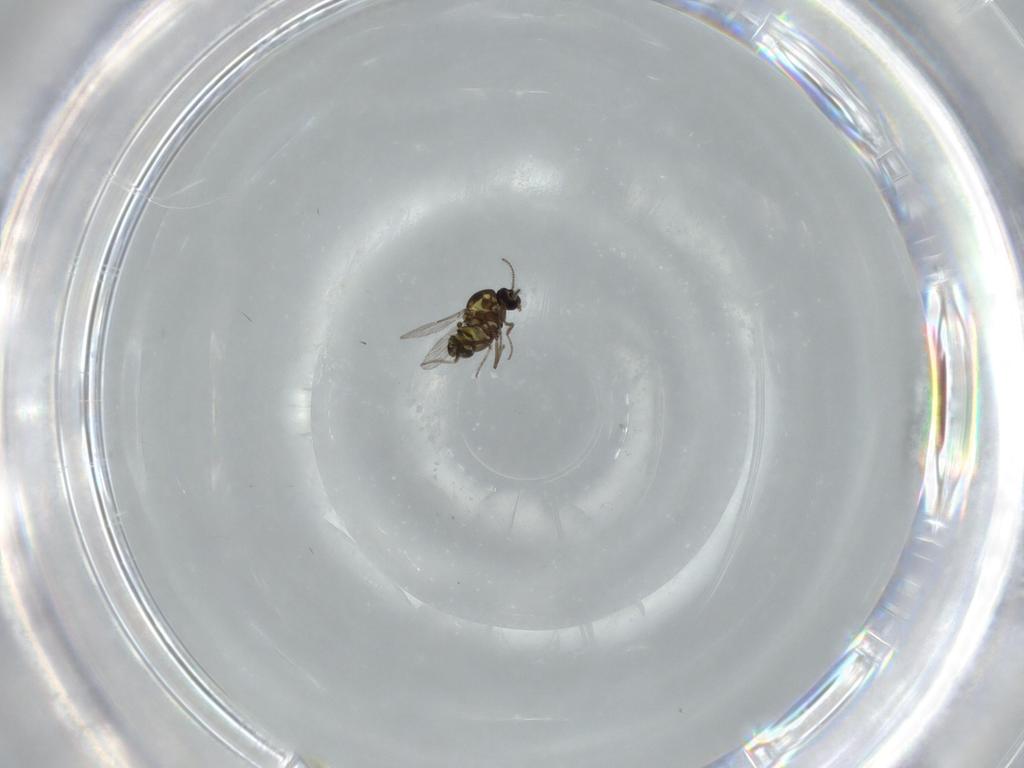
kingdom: Animalia
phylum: Arthropoda
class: Insecta
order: Diptera
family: Ceratopogonidae
